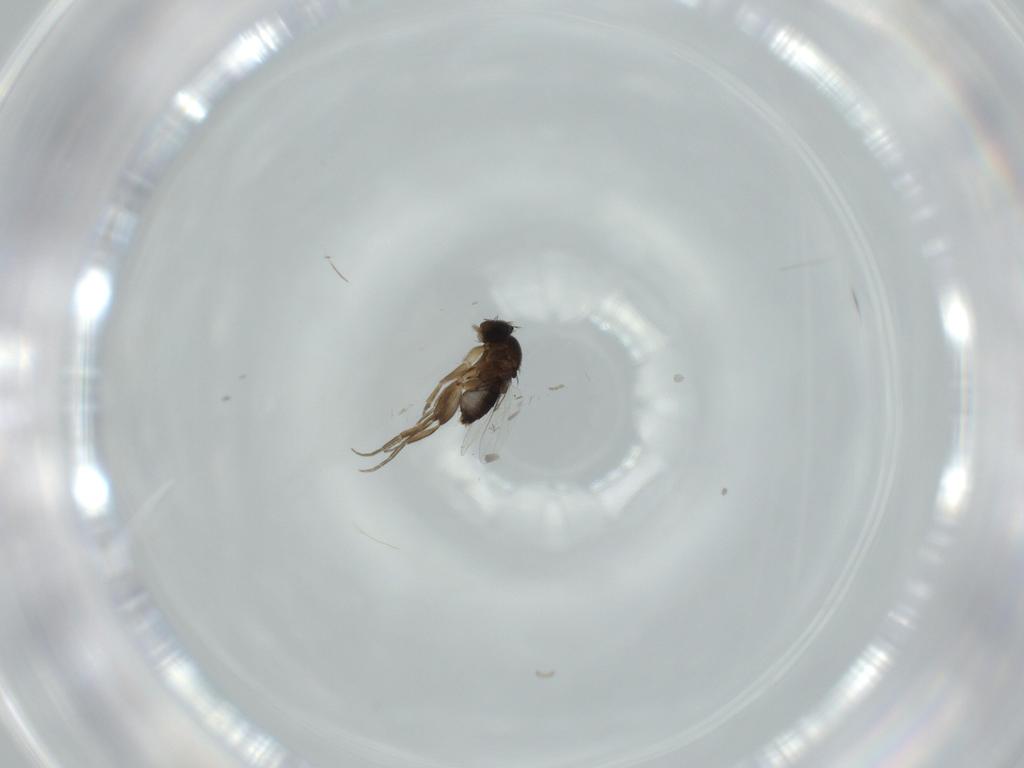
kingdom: Animalia
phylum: Arthropoda
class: Insecta
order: Diptera
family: Phoridae
